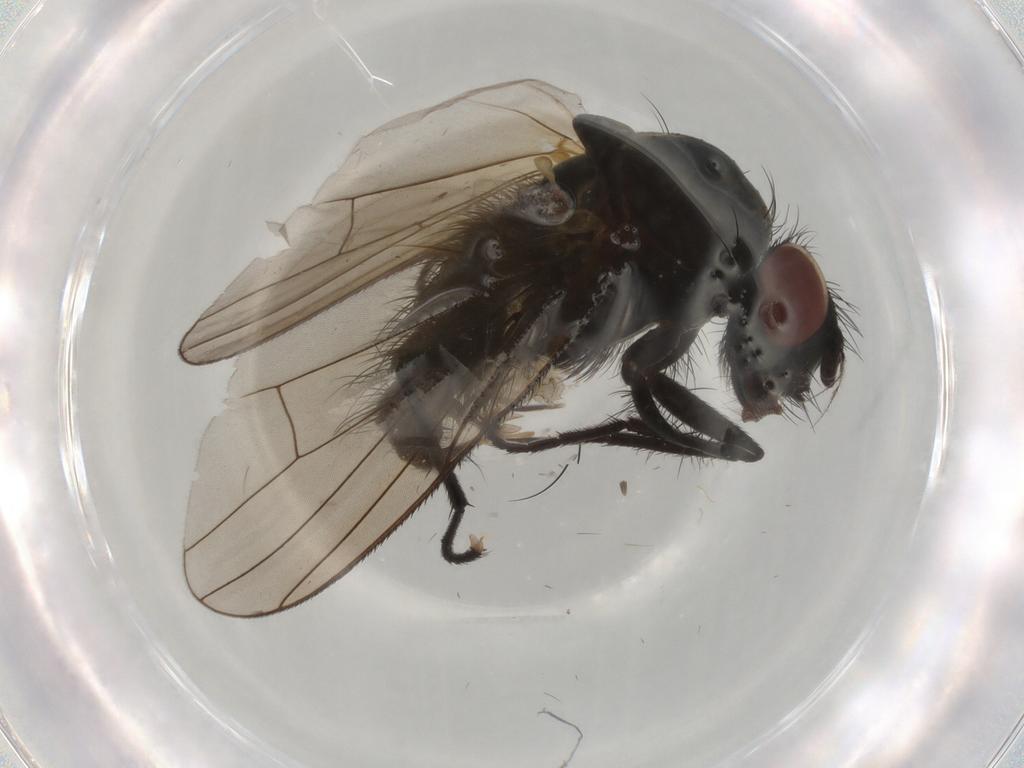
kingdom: Animalia
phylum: Arthropoda
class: Insecta
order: Diptera
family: Anthomyiidae
